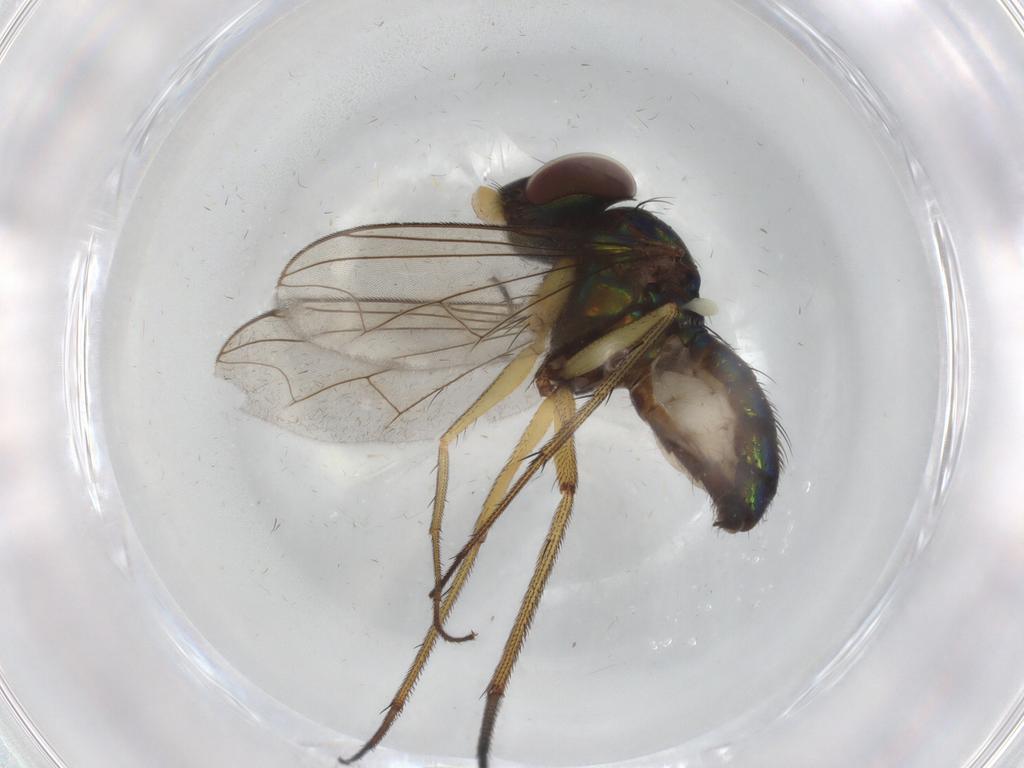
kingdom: Animalia
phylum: Arthropoda
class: Insecta
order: Diptera
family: Dolichopodidae
